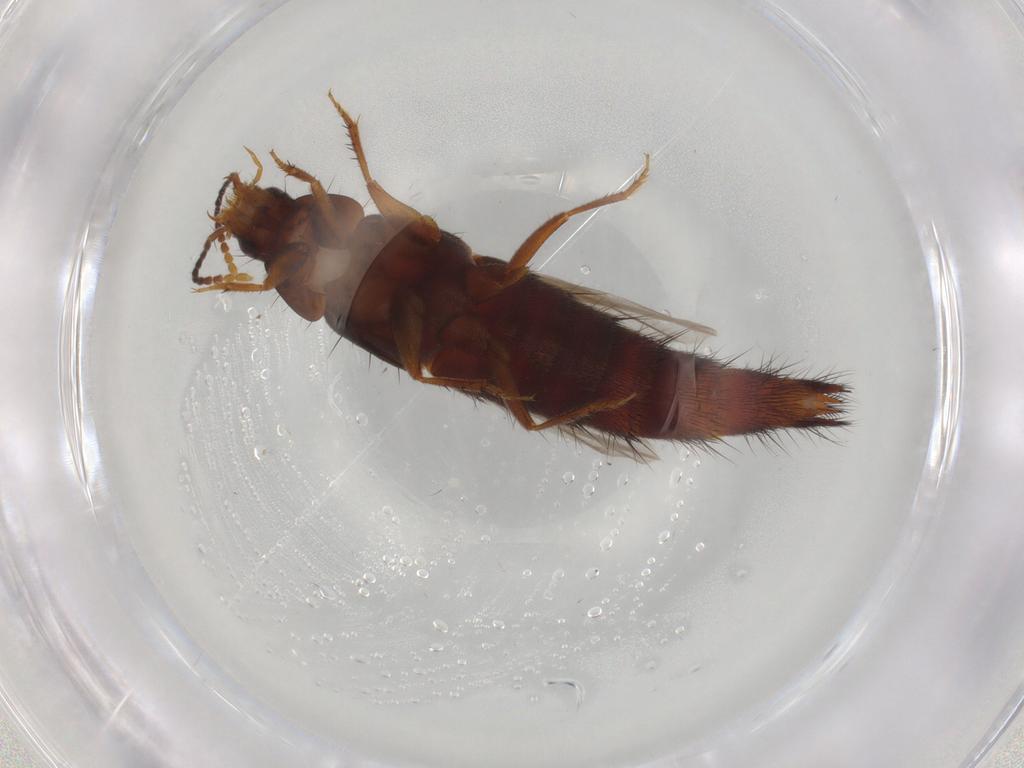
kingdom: Animalia
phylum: Arthropoda
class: Insecta
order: Coleoptera
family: Staphylinidae
